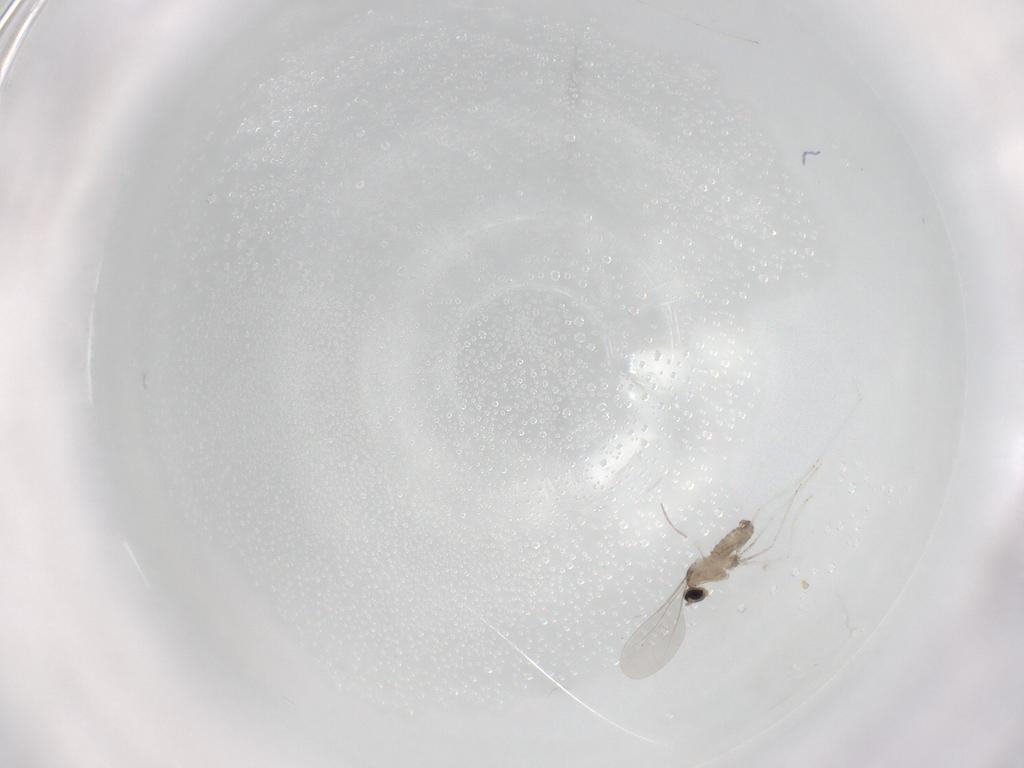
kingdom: Animalia
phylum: Arthropoda
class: Insecta
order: Diptera
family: Cecidomyiidae
